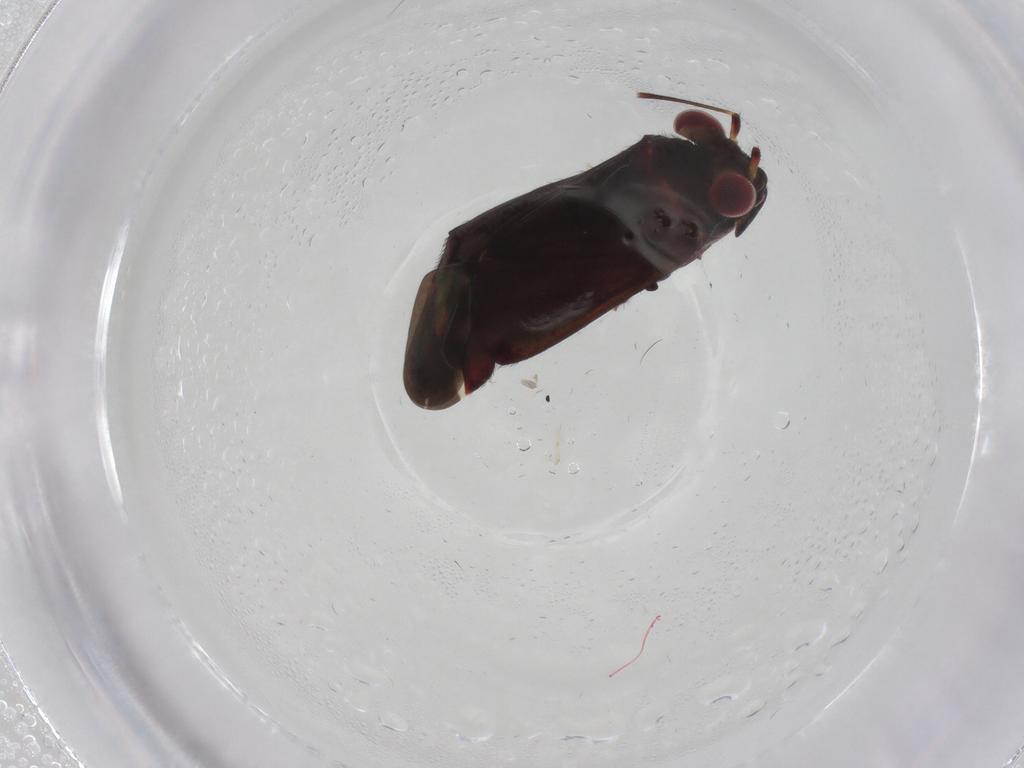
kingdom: Animalia
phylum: Arthropoda
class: Insecta
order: Hemiptera
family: Miridae
